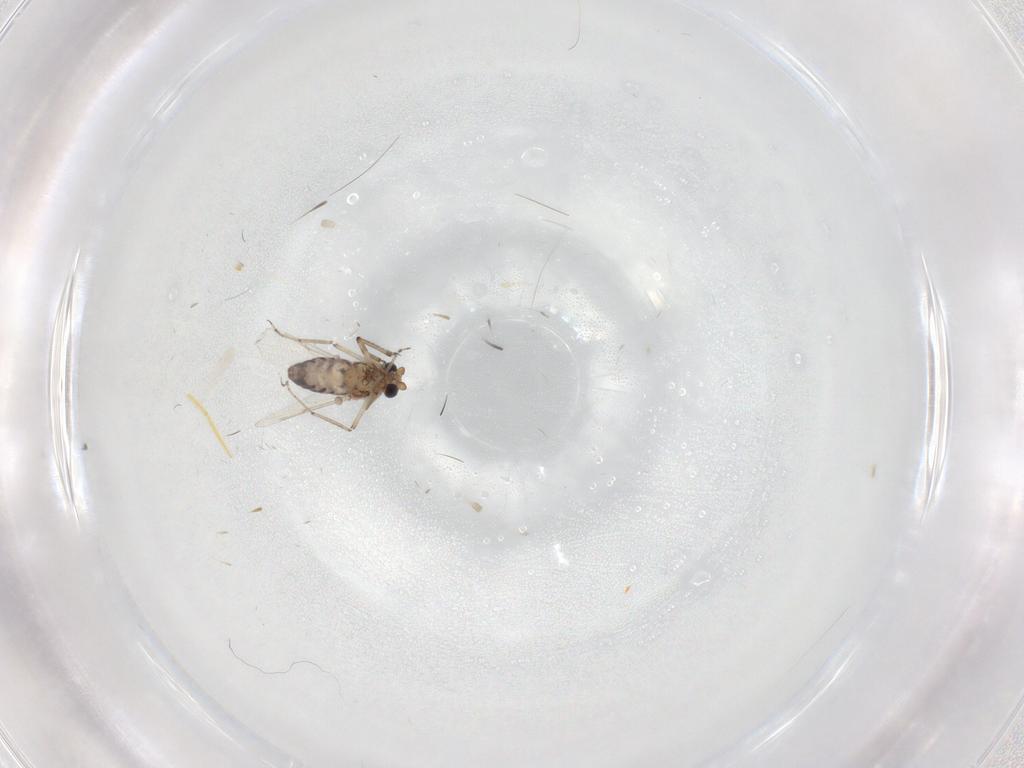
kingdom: Animalia
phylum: Arthropoda
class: Insecta
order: Diptera
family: Ceratopogonidae
